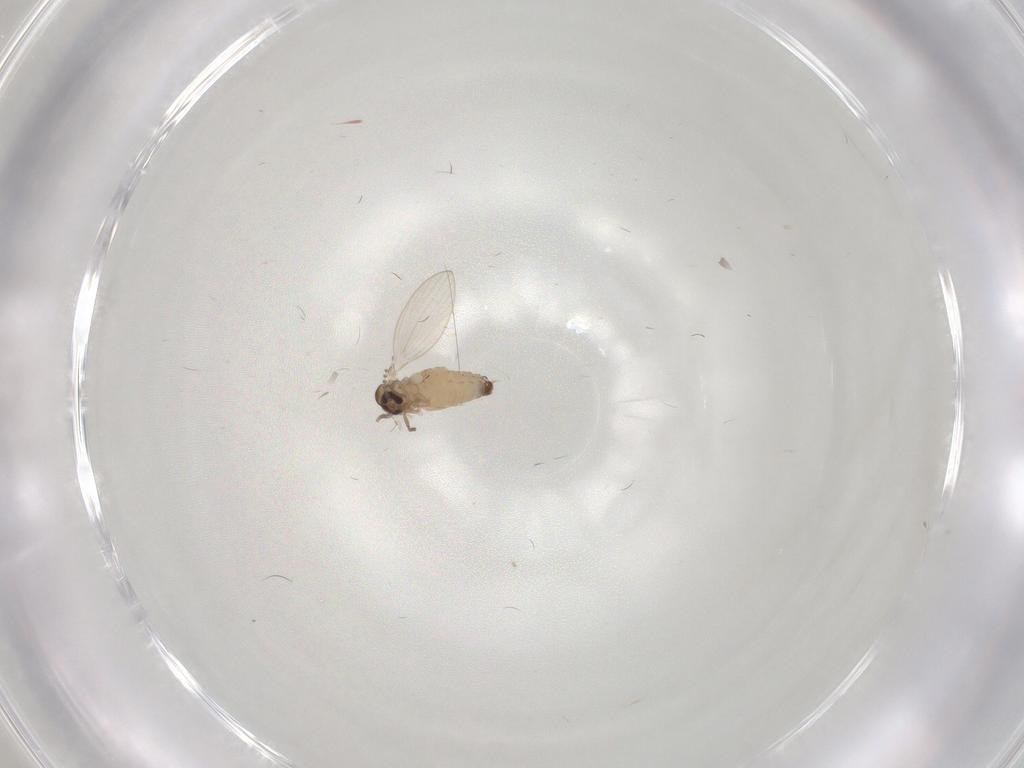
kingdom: Animalia
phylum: Arthropoda
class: Insecta
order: Diptera
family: Psychodidae
